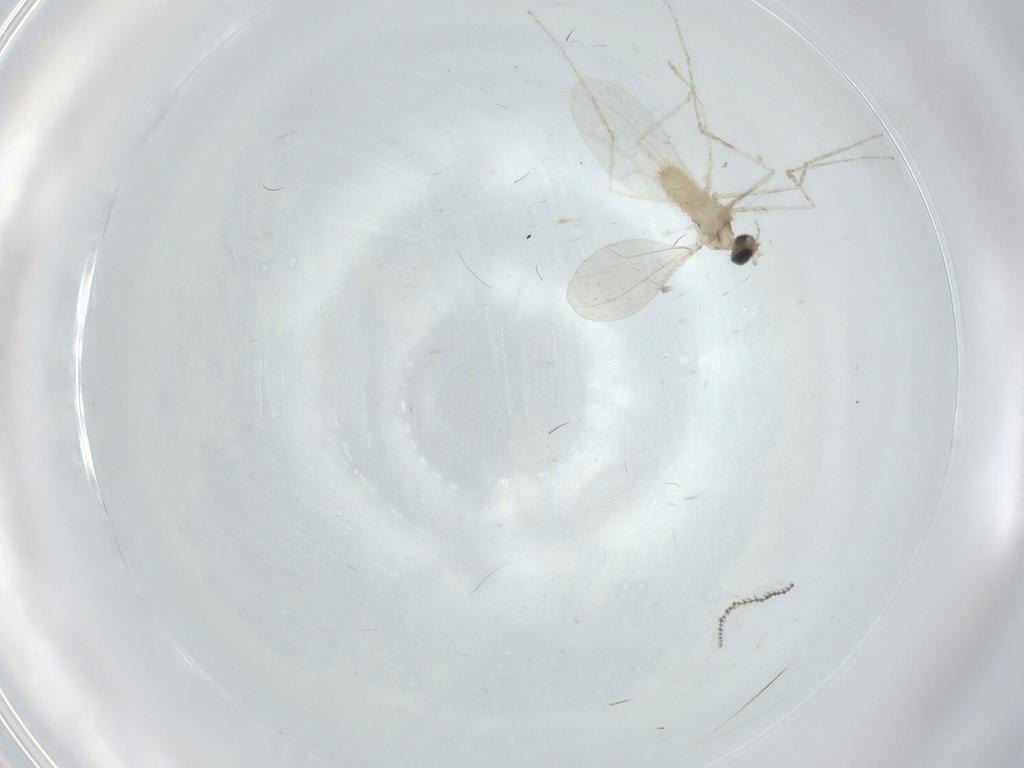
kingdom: Animalia
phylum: Arthropoda
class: Insecta
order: Diptera
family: Cecidomyiidae
